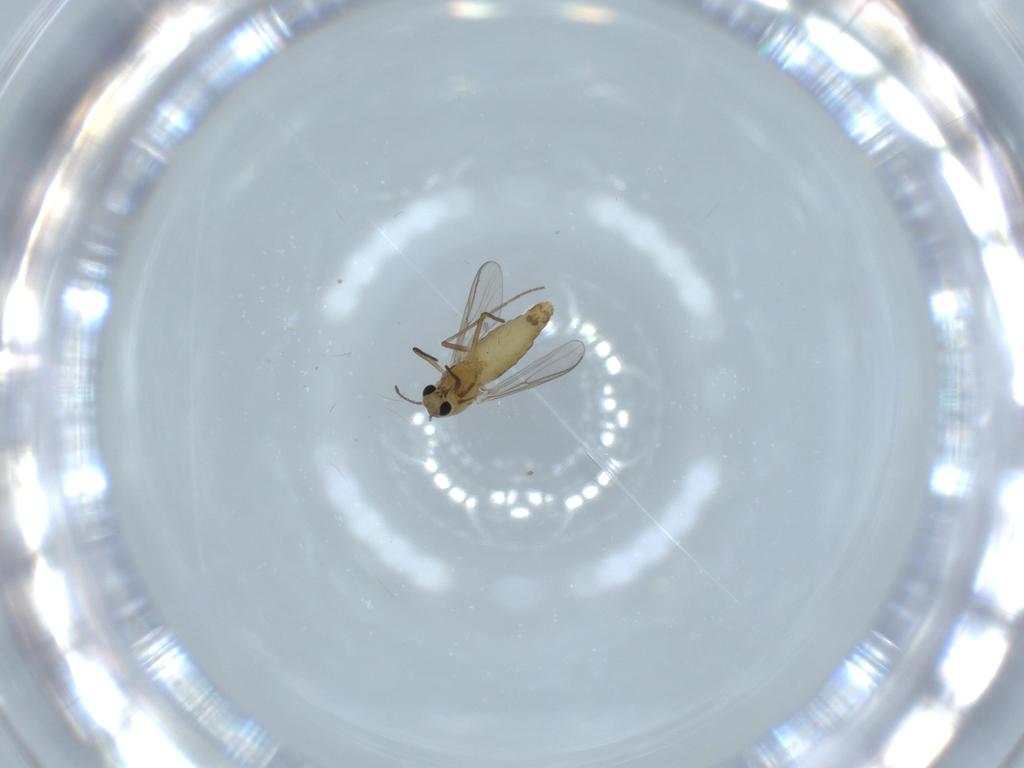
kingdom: Animalia
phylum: Arthropoda
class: Insecta
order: Diptera
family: Chironomidae
